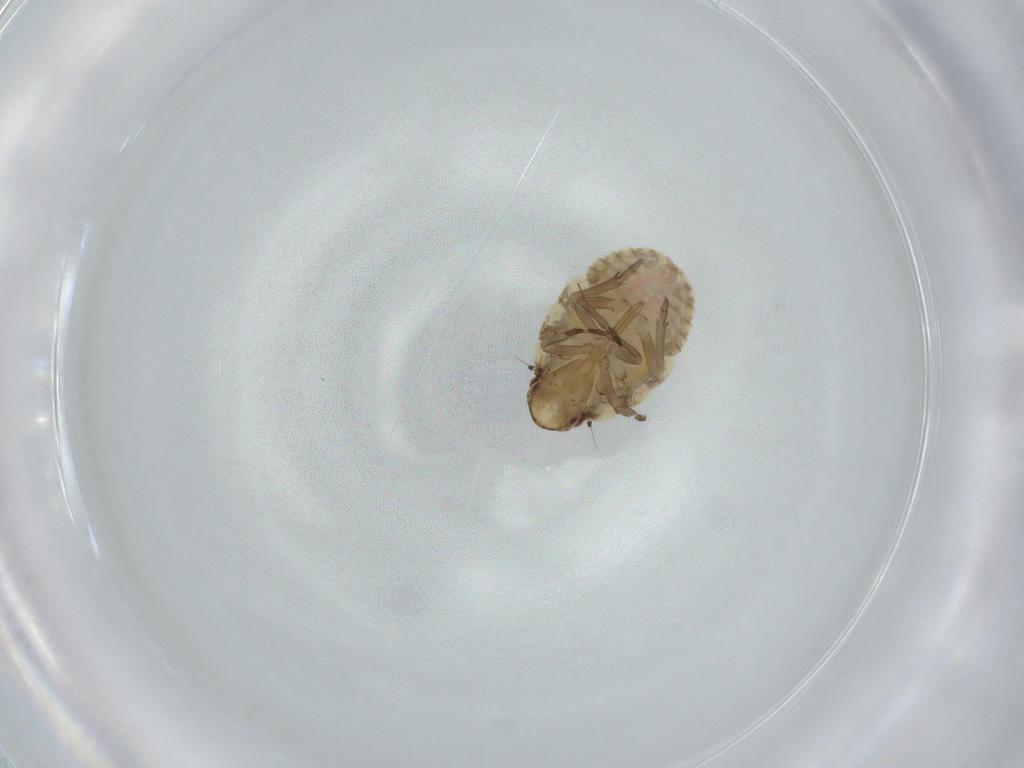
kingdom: Animalia
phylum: Arthropoda
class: Insecta
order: Hemiptera
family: Flatidae
